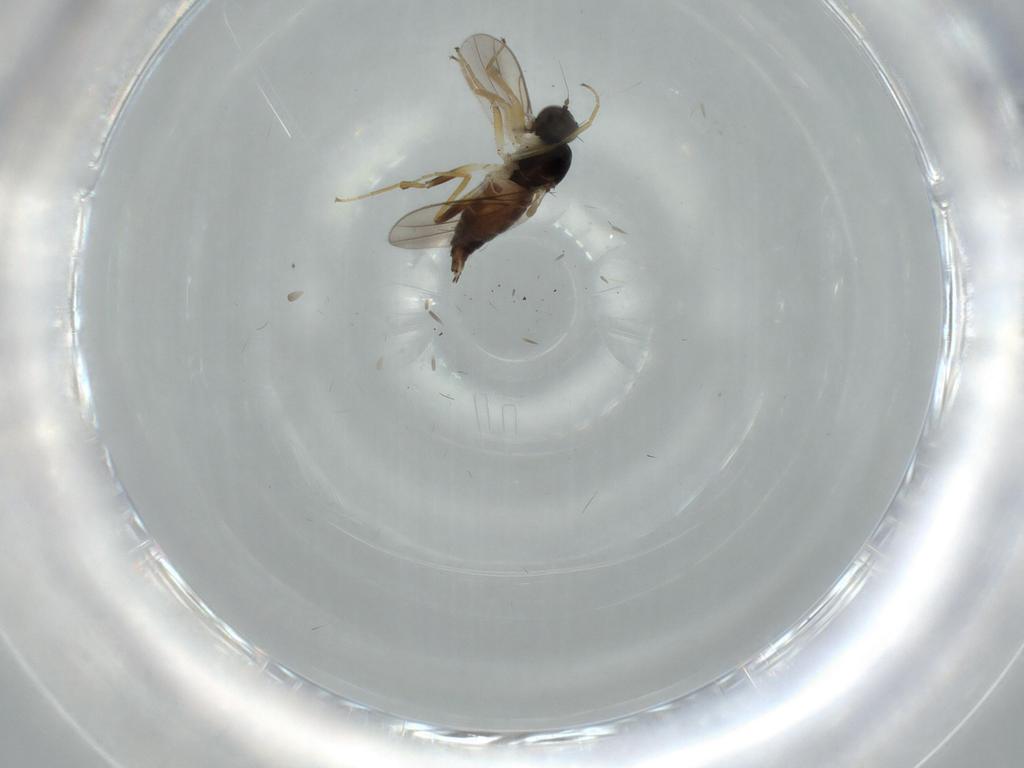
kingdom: Animalia
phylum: Arthropoda
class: Insecta
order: Diptera
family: Hybotidae
